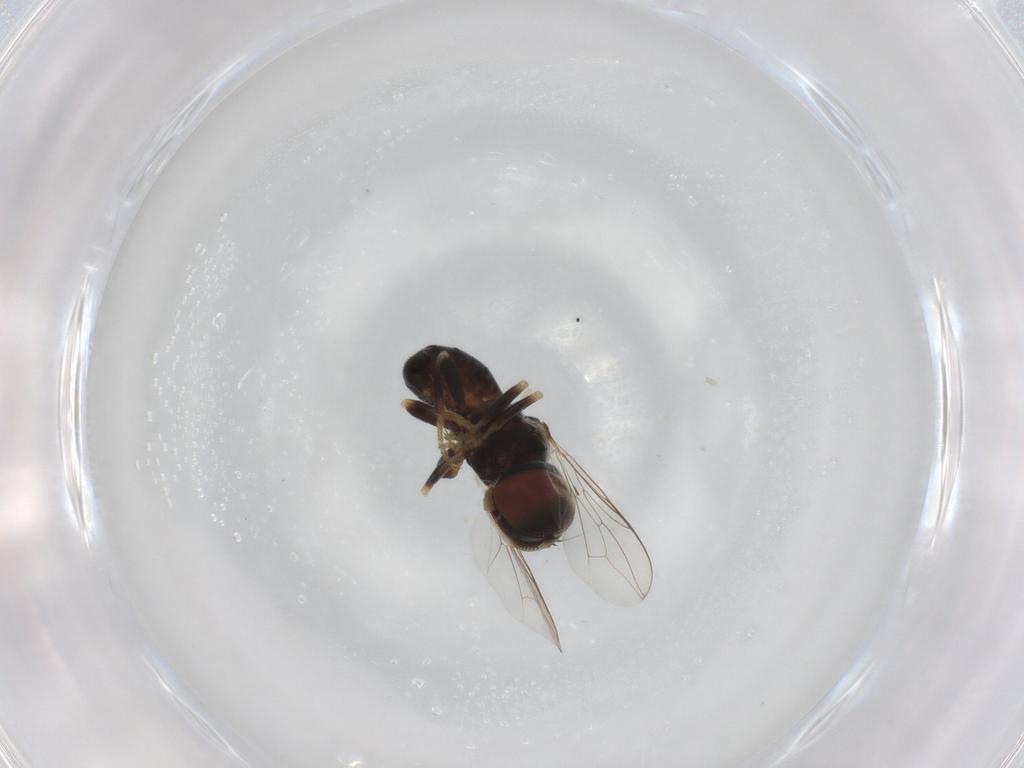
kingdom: Animalia
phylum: Arthropoda
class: Insecta
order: Diptera
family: Pipunculidae
